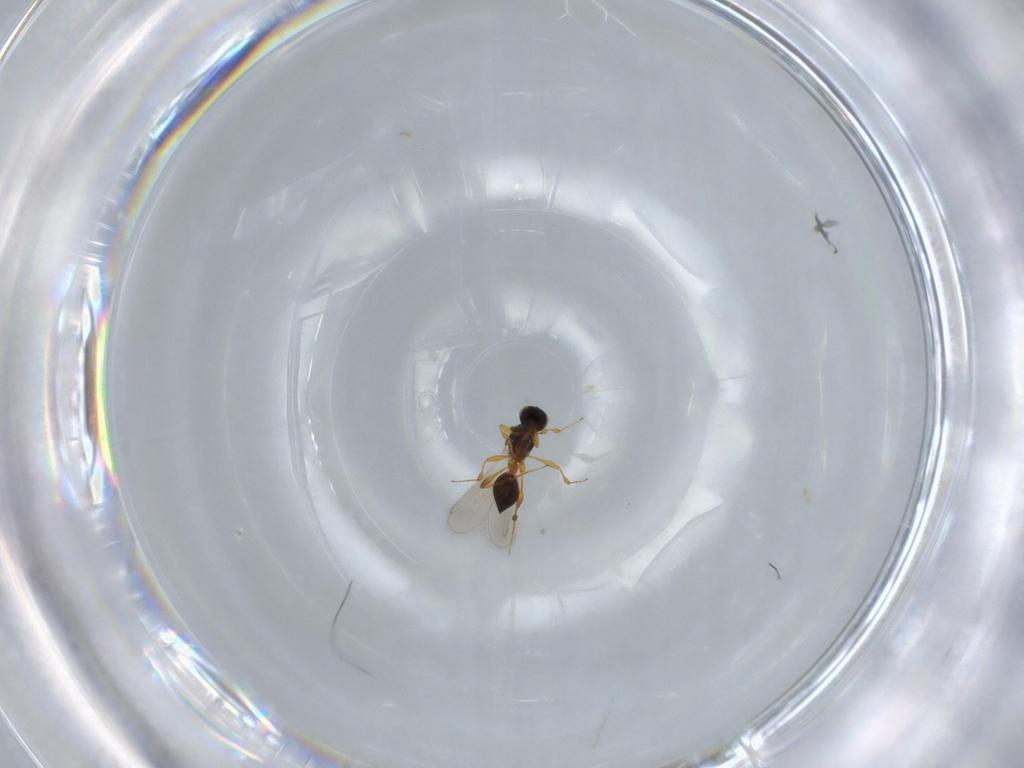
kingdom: Animalia
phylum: Arthropoda
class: Insecta
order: Hymenoptera
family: Platygastridae
